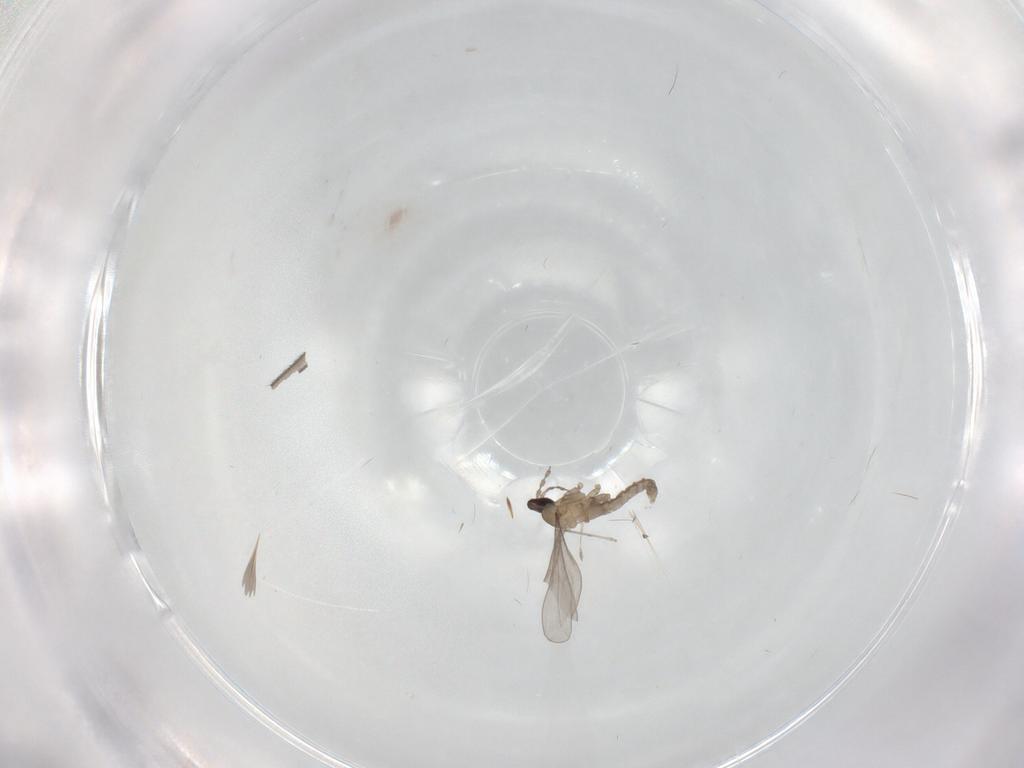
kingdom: Animalia
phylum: Arthropoda
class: Insecta
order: Diptera
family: Cecidomyiidae
